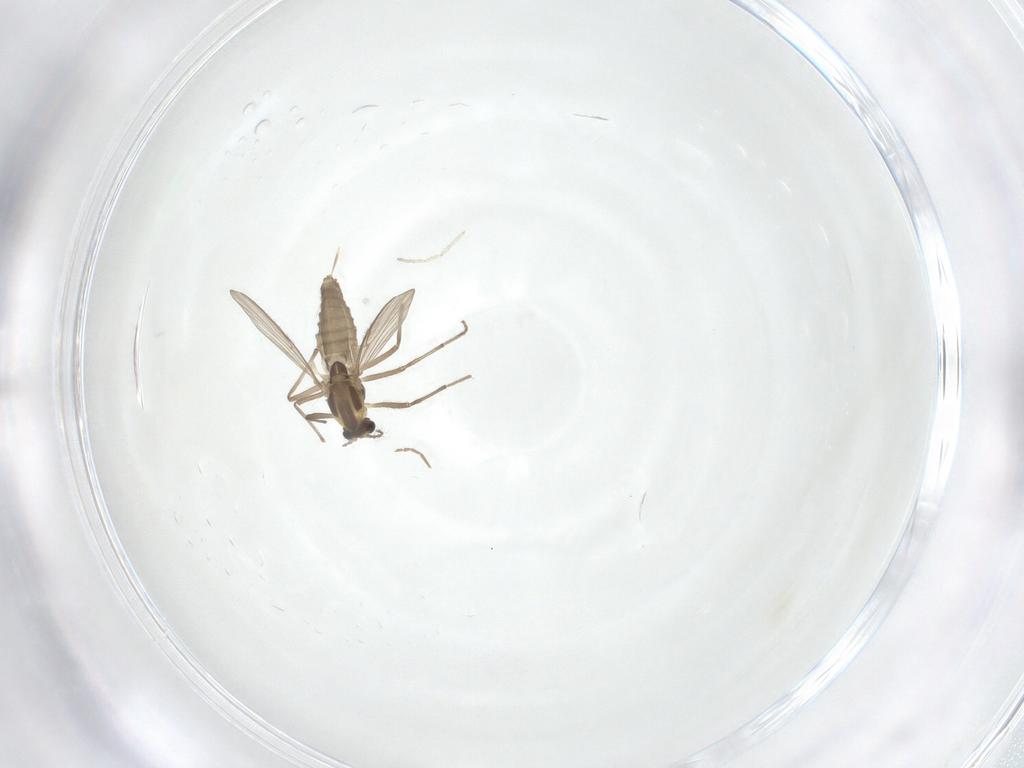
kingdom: Animalia
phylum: Arthropoda
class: Insecta
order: Diptera
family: Chironomidae
